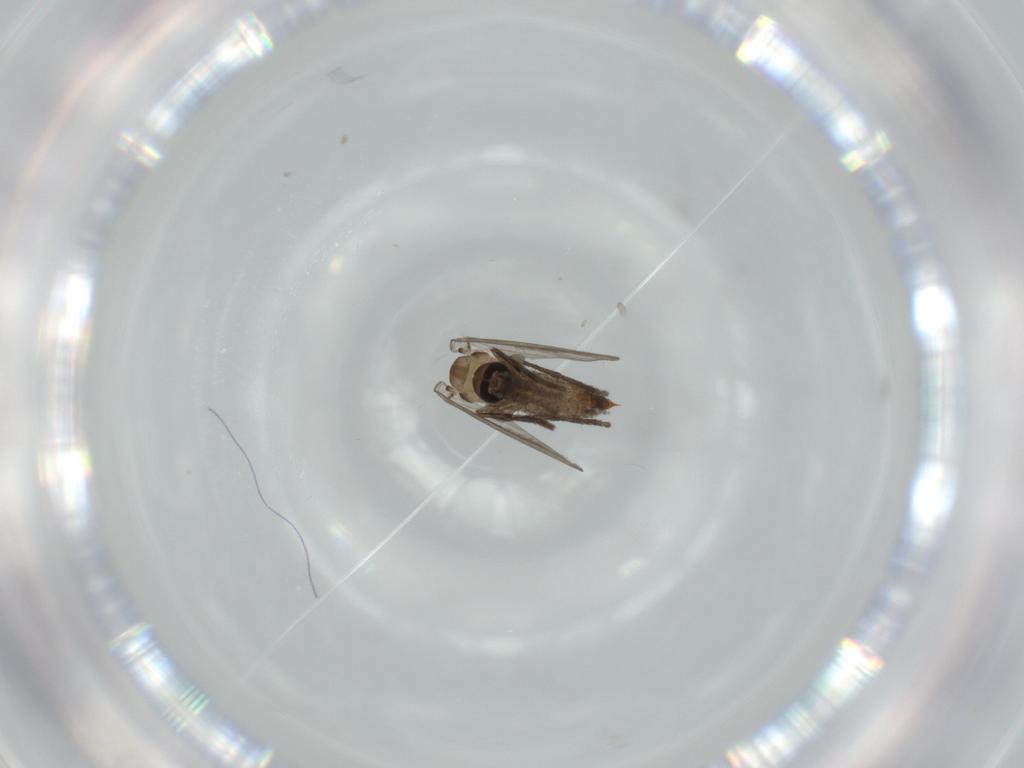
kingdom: Animalia
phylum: Arthropoda
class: Insecta
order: Diptera
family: Psychodidae
